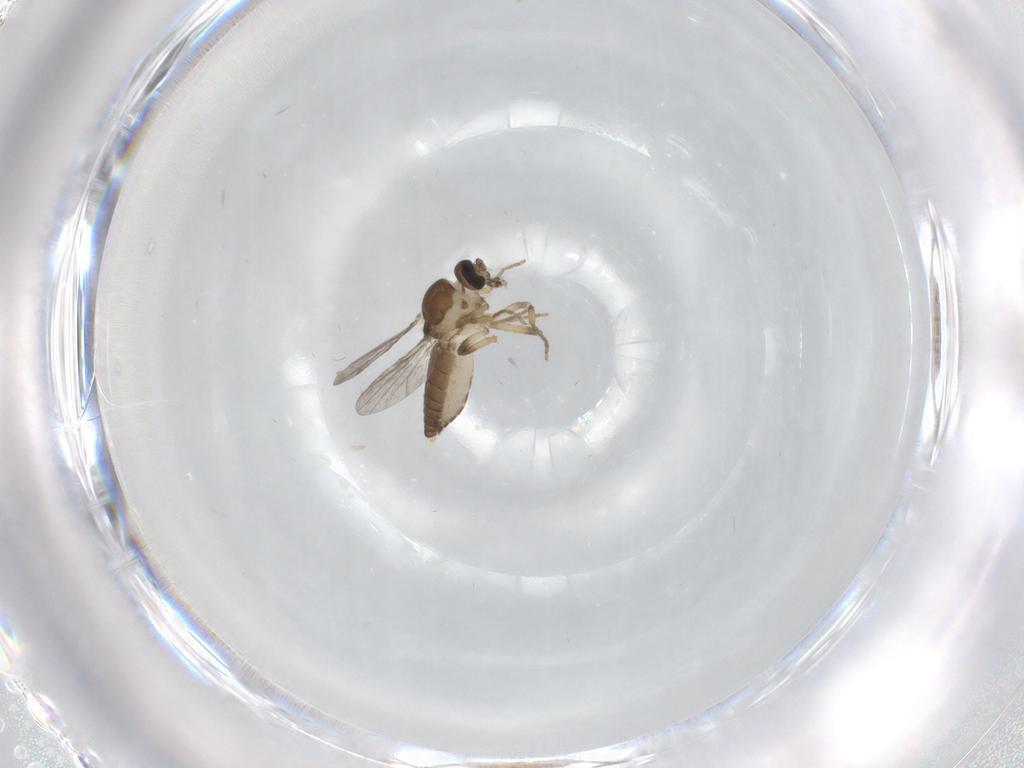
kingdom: Animalia
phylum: Arthropoda
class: Insecta
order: Diptera
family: Ceratopogonidae
